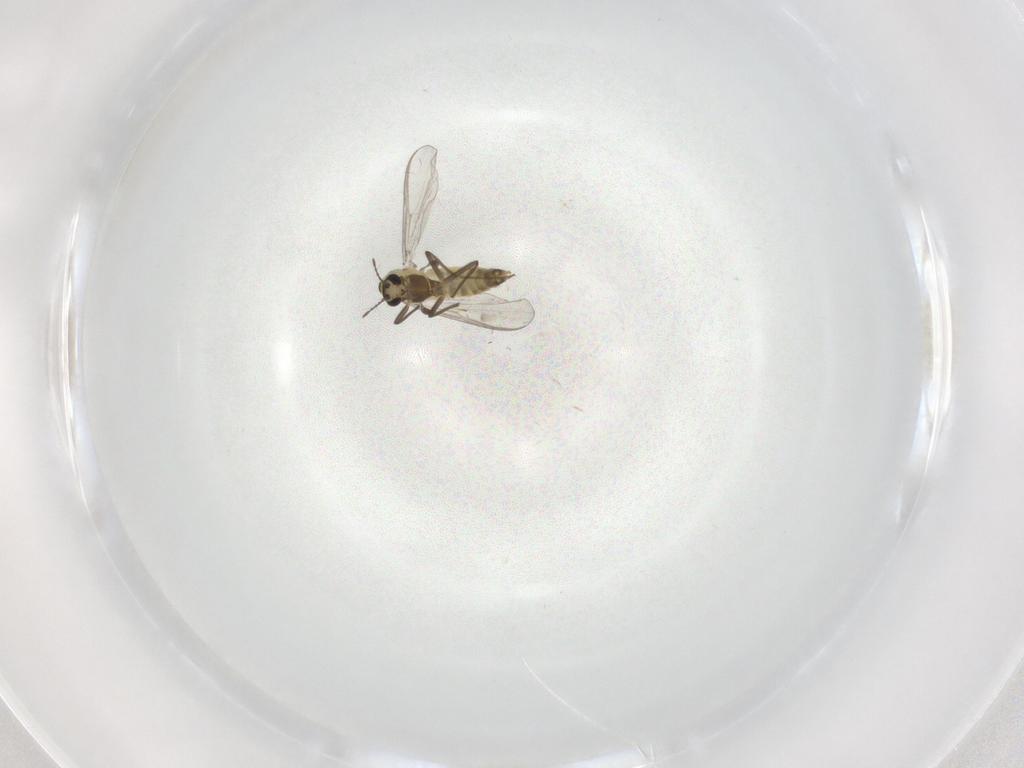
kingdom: Animalia
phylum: Arthropoda
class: Insecta
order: Diptera
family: Chironomidae
